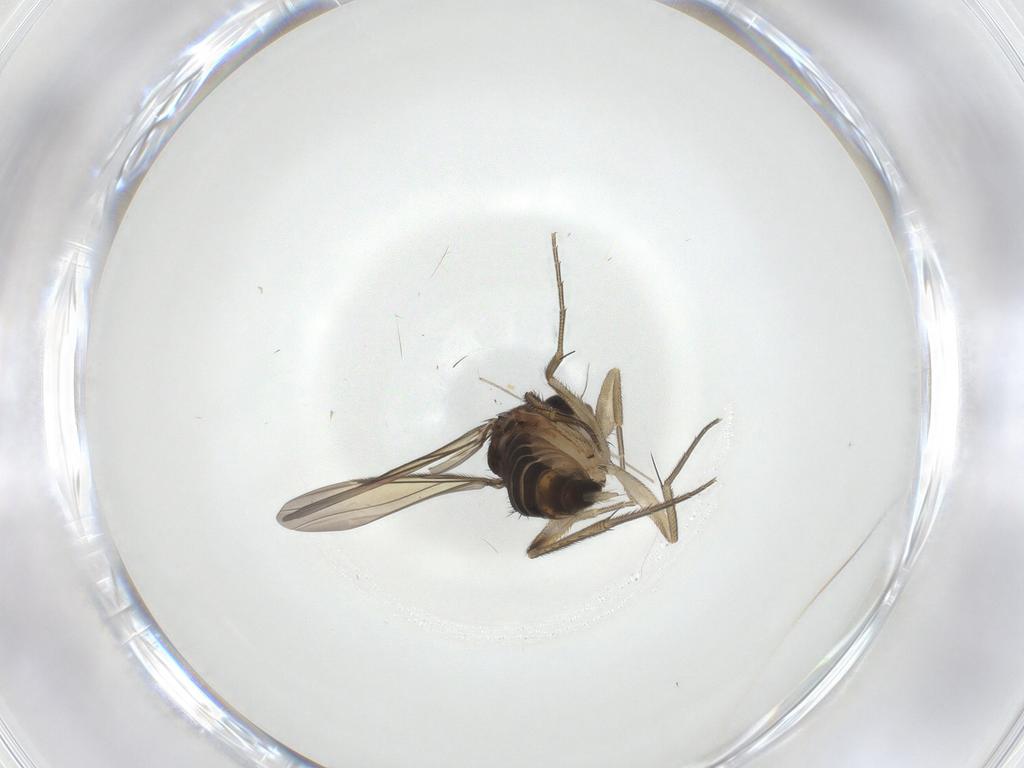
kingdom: Animalia
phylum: Arthropoda
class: Insecta
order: Diptera
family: Phoridae
